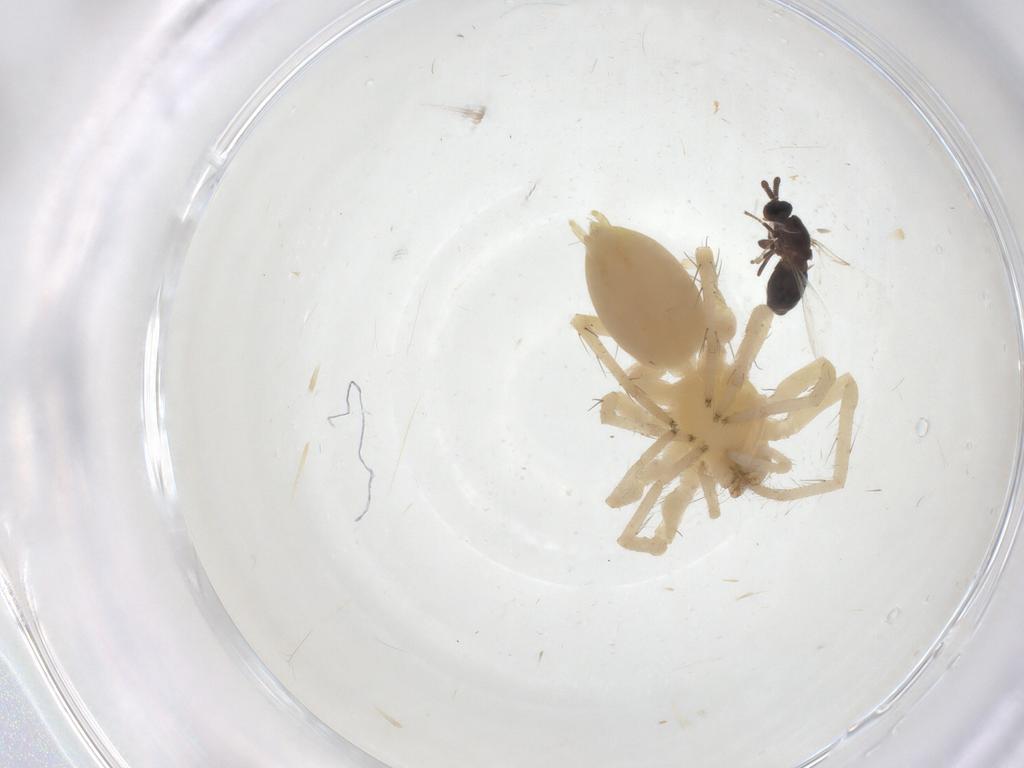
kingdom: Animalia
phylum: Arthropoda
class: Arachnida
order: Araneae
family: Anyphaenidae
